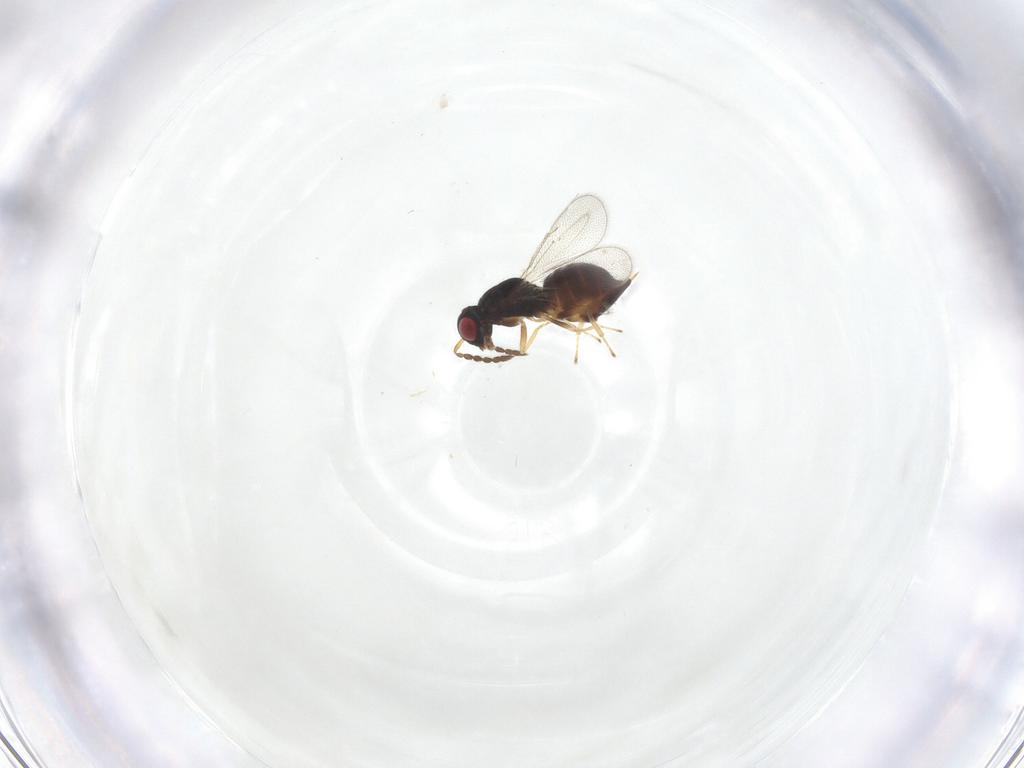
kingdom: Animalia
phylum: Arthropoda
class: Insecta
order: Hymenoptera
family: Eulophidae
